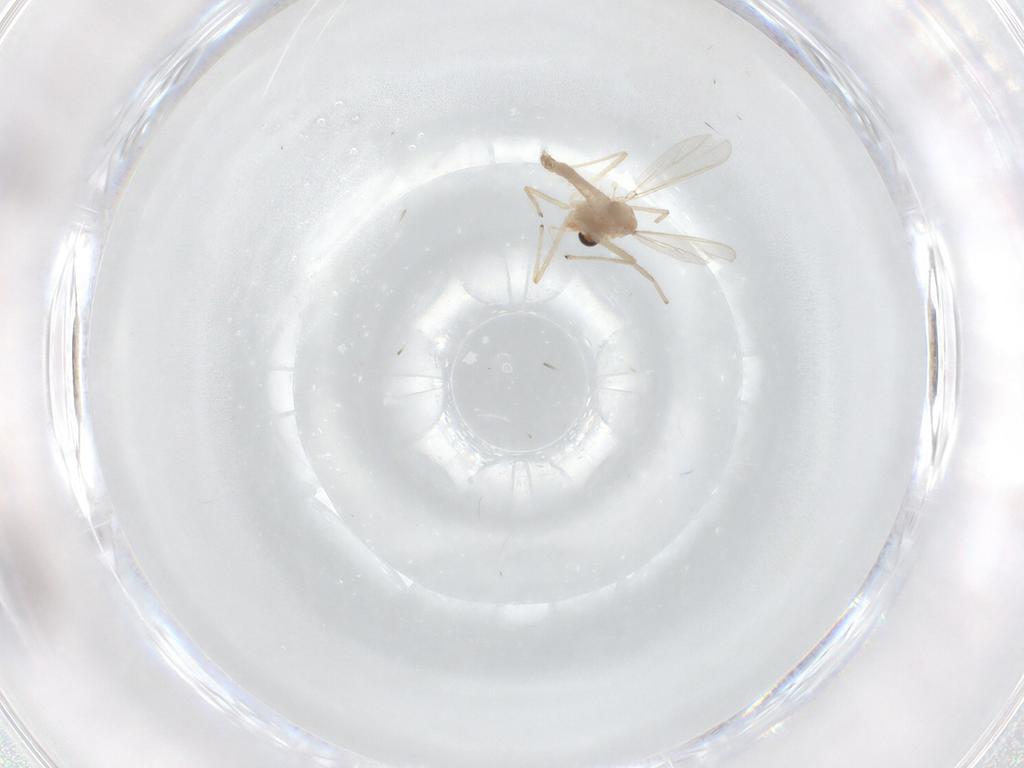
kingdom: Animalia
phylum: Arthropoda
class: Insecta
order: Diptera
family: Chironomidae
